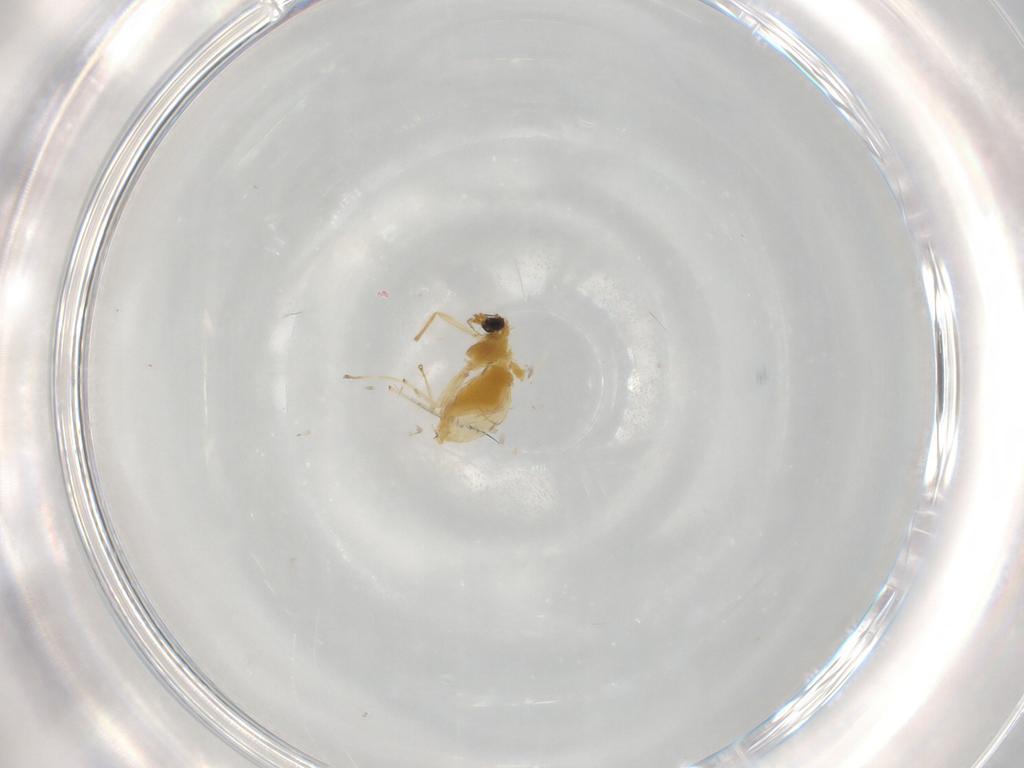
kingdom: Animalia
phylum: Arthropoda
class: Insecta
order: Diptera
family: Chironomidae
